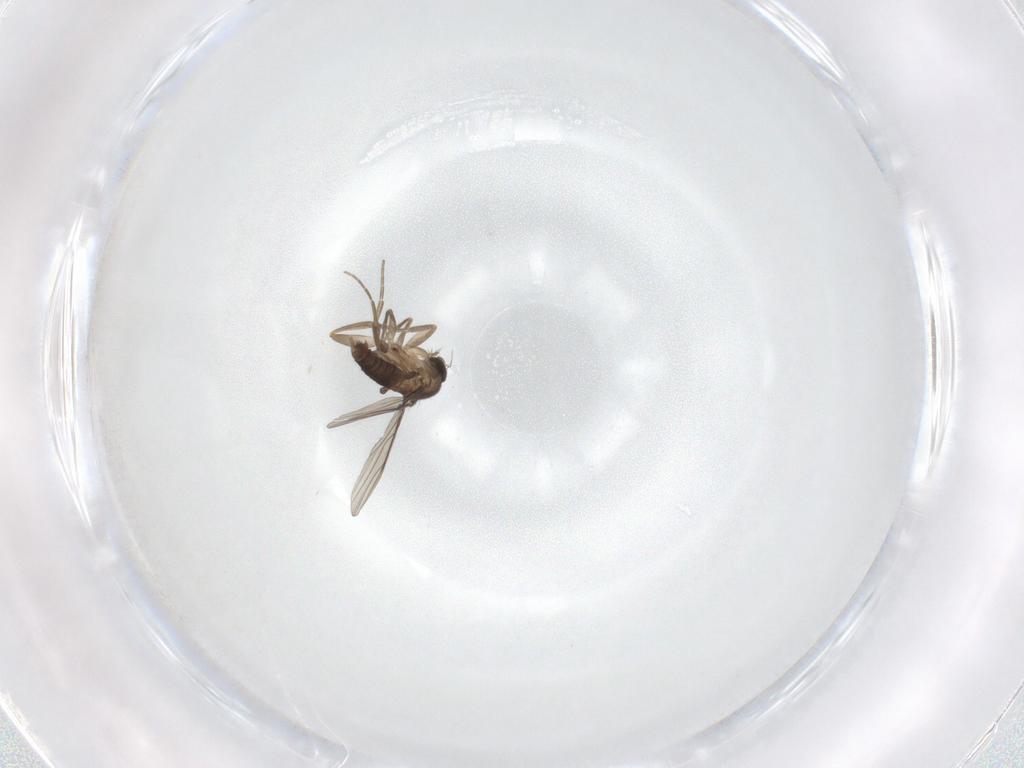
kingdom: Animalia
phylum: Arthropoda
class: Insecta
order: Diptera
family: Phoridae
